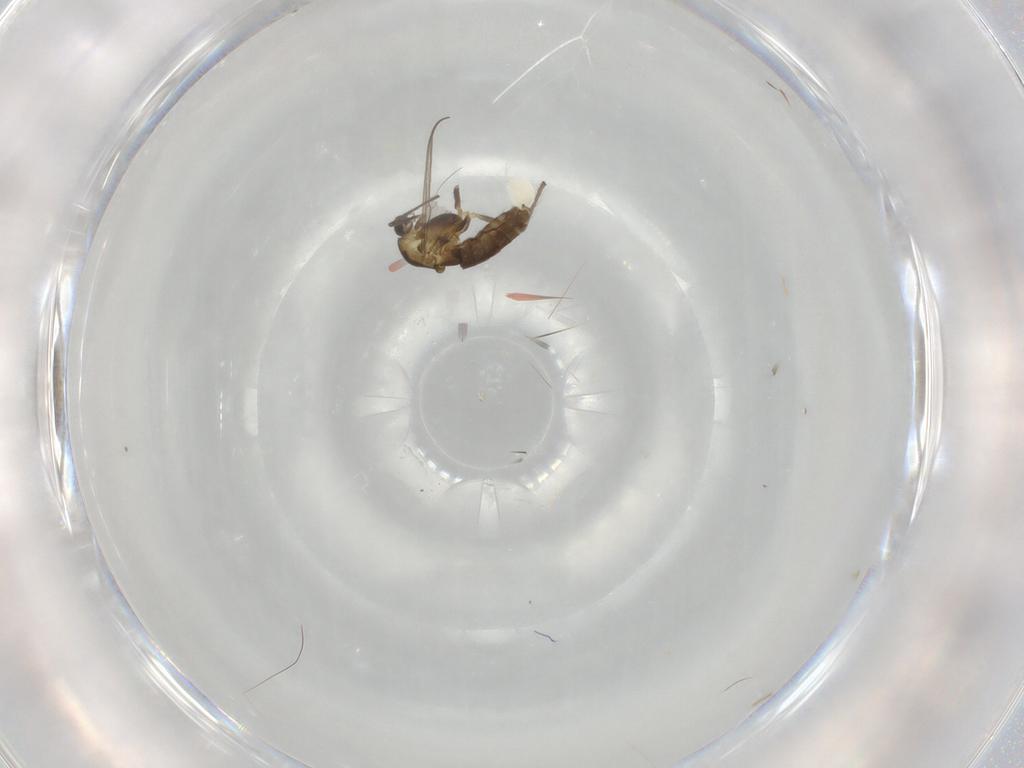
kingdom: Animalia
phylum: Arthropoda
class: Insecta
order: Diptera
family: Chironomidae
